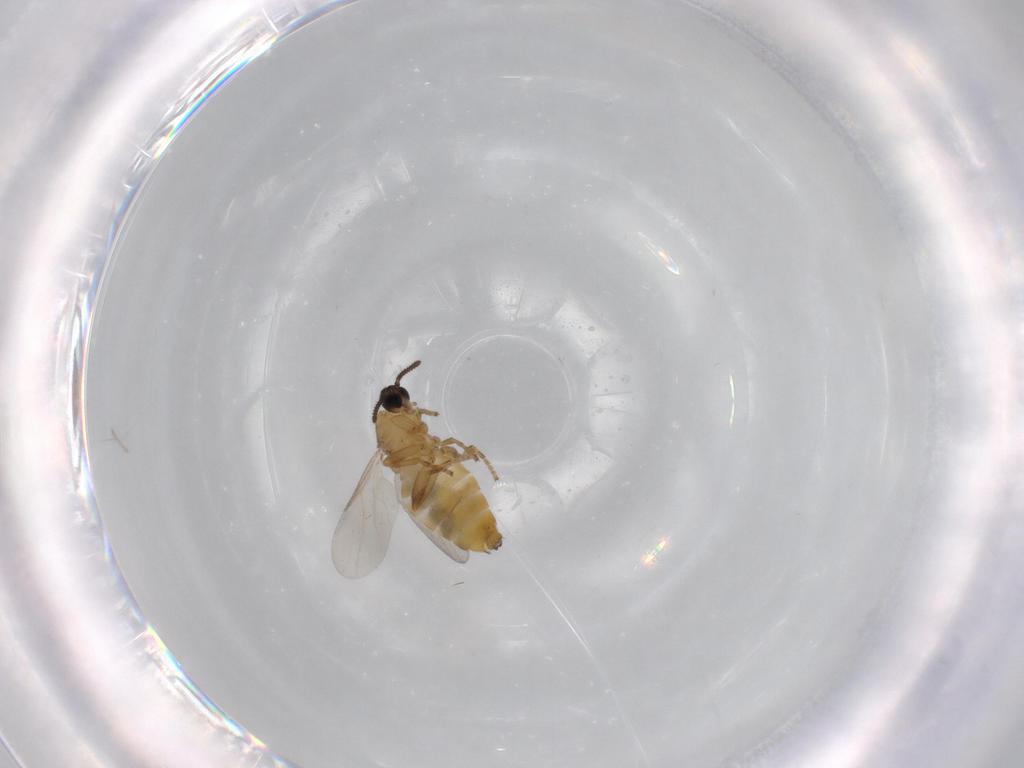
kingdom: Animalia
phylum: Arthropoda
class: Insecta
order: Diptera
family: Scatopsidae
